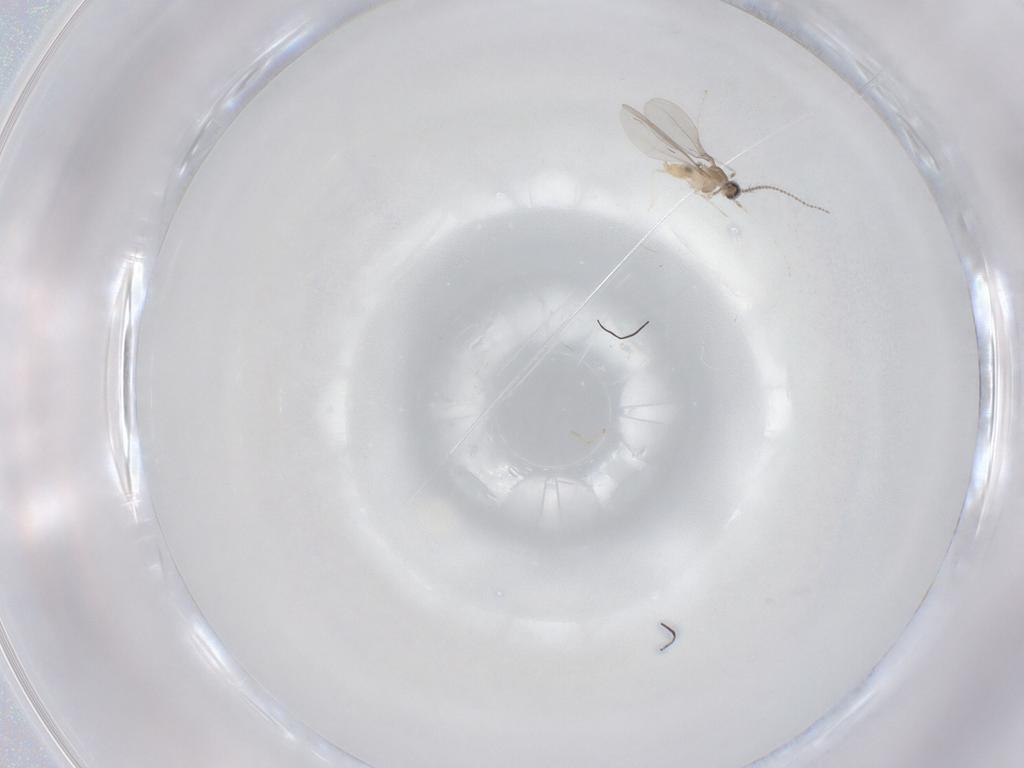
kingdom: Animalia
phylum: Arthropoda
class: Insecta
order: Diptera
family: Cecidomyiidae
